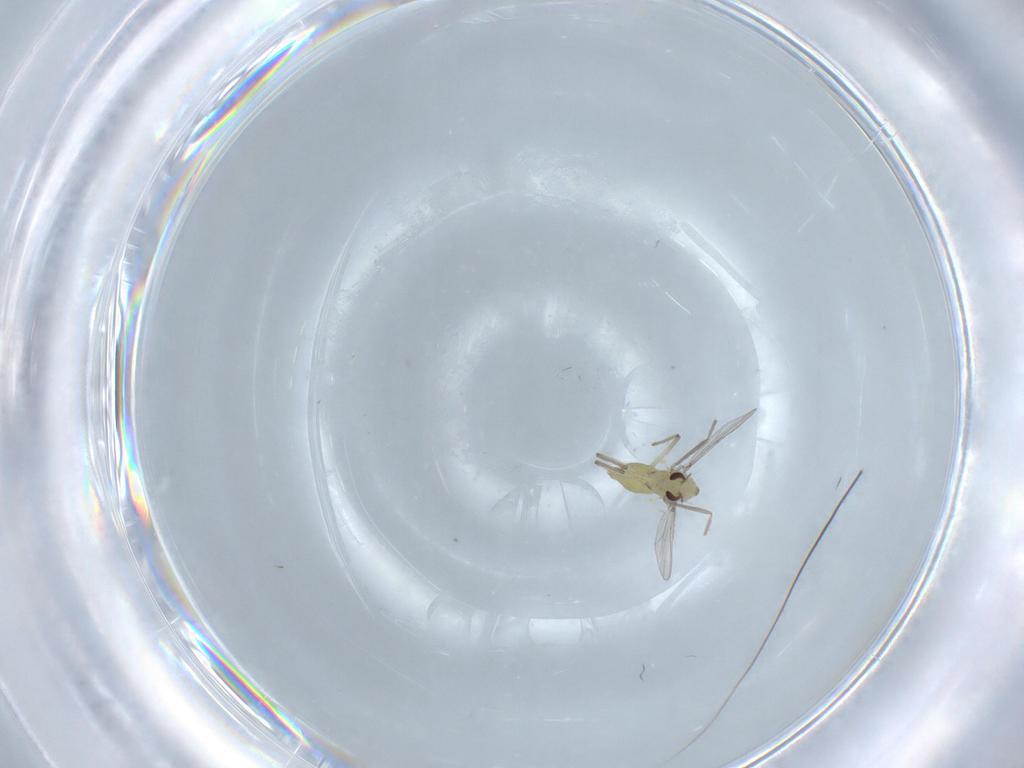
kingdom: Animalia
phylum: Arthropoda
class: Insecta
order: Diptera
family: Chironomidae
